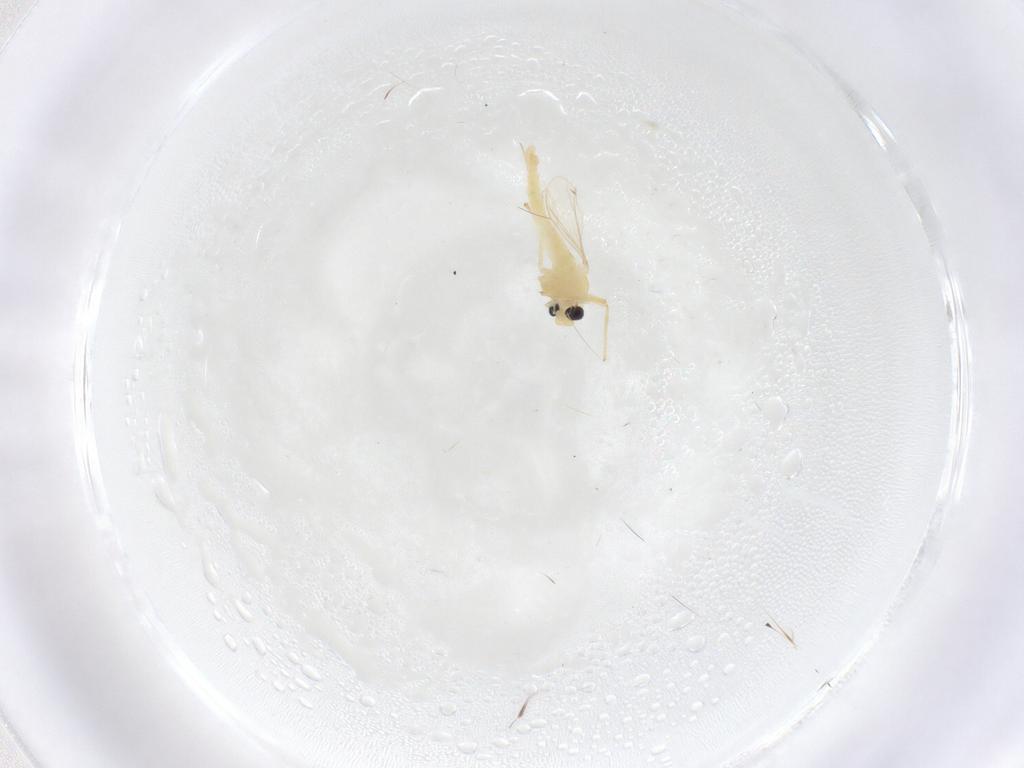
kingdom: Animalia
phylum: Arthropoda
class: Insecta
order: Diptera
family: Chironomidae
